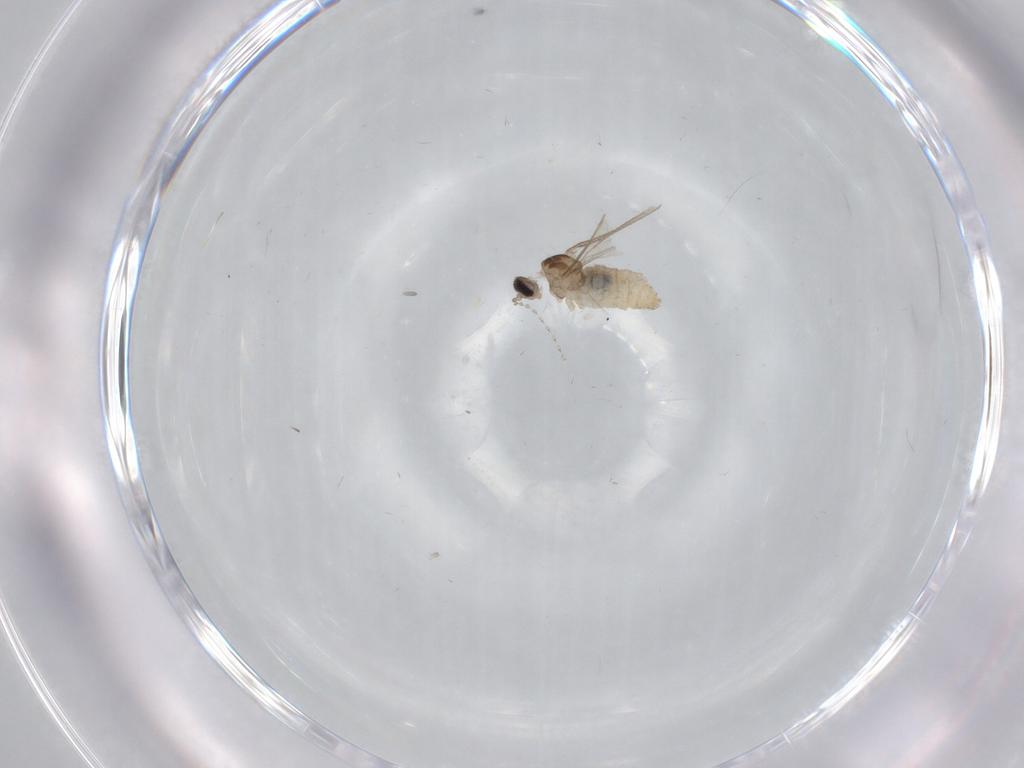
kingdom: Animalia
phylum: Arthropoda
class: Insecta
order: Diptera
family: Cecidomyiidae
